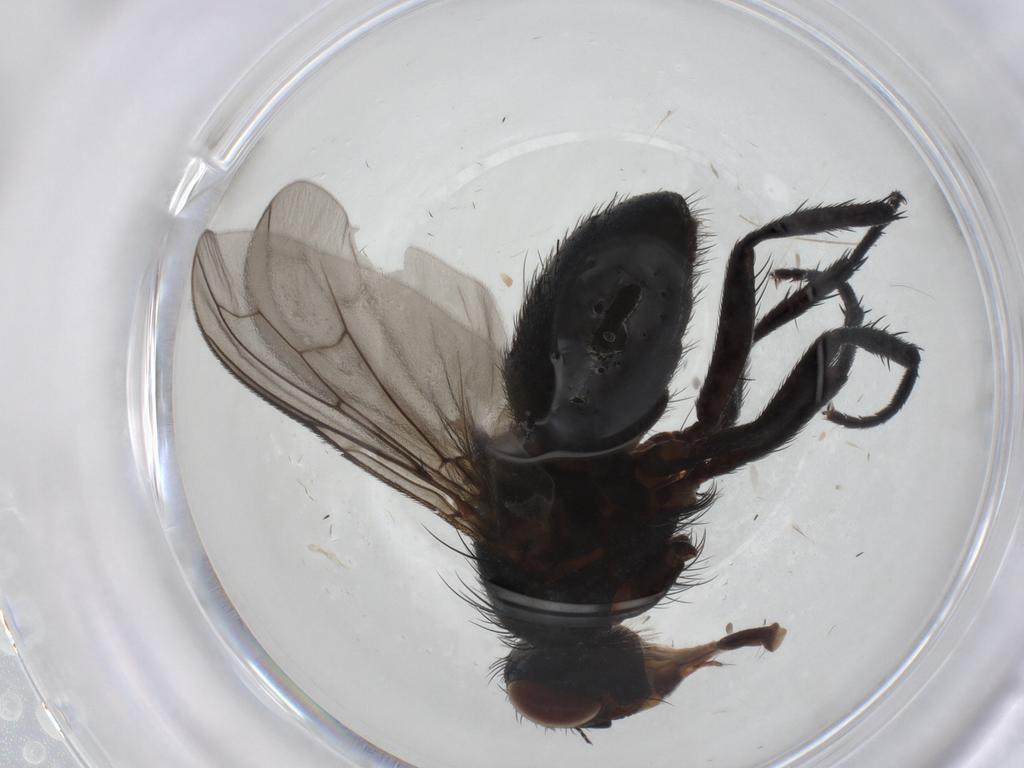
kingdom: Animalia
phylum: Arthropoda
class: Insecta
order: Diptera
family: Tachinidae
